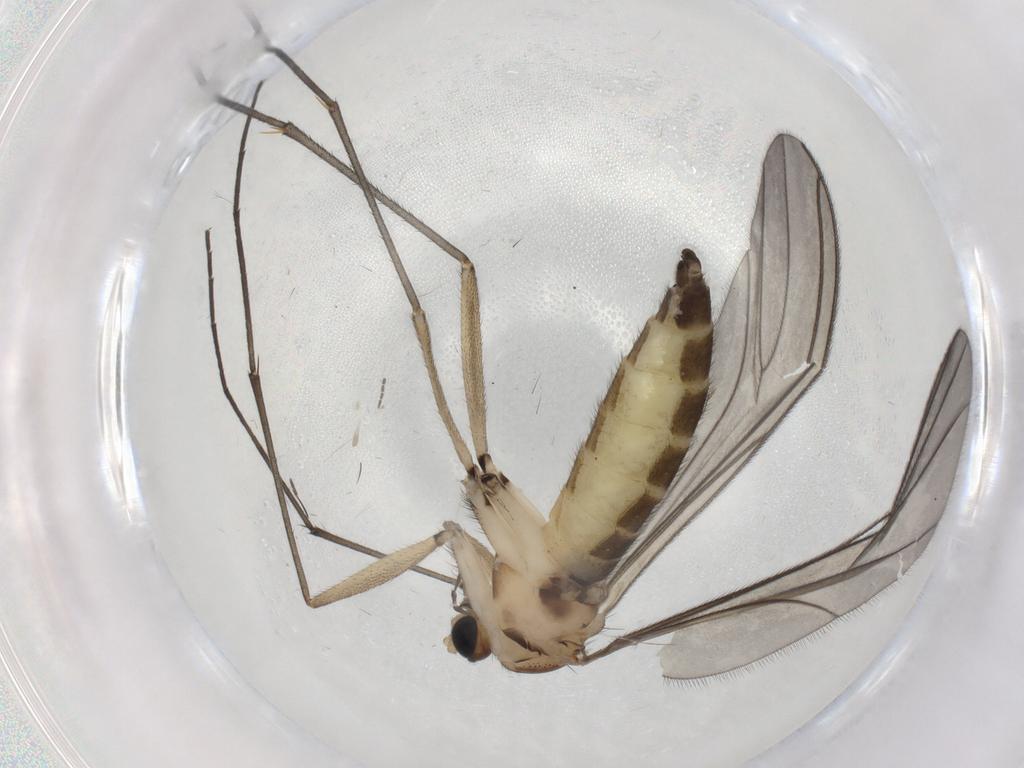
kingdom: Animalia
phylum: Arthropoda
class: Insecta
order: Diptera
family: Sciaridae
